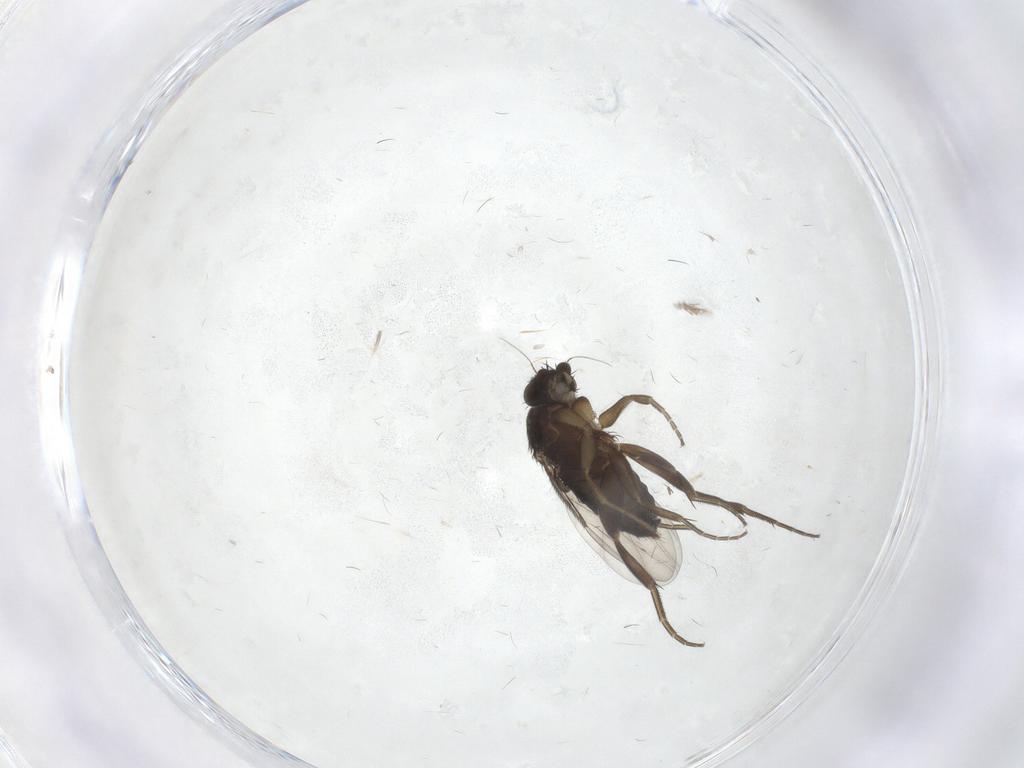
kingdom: Animalia
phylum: Arthropoda
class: Insecta
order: Diptera
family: Phoridae
